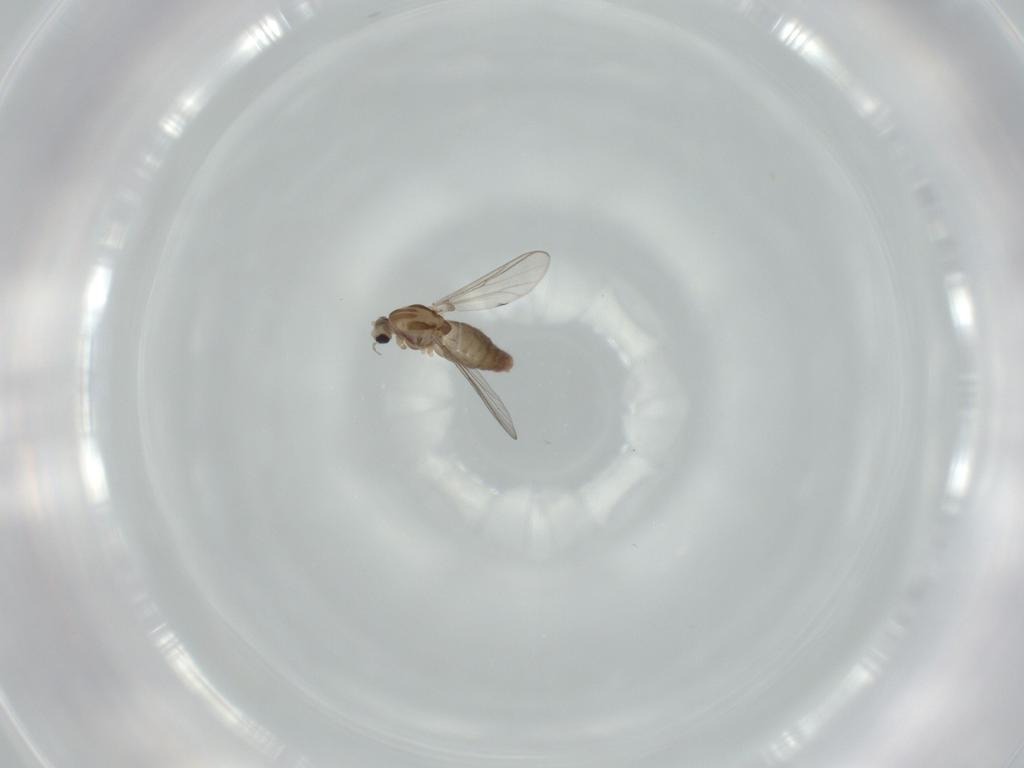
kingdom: Animalia
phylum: Arthropoda
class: Insecta
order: Diptera
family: Chironomidae
